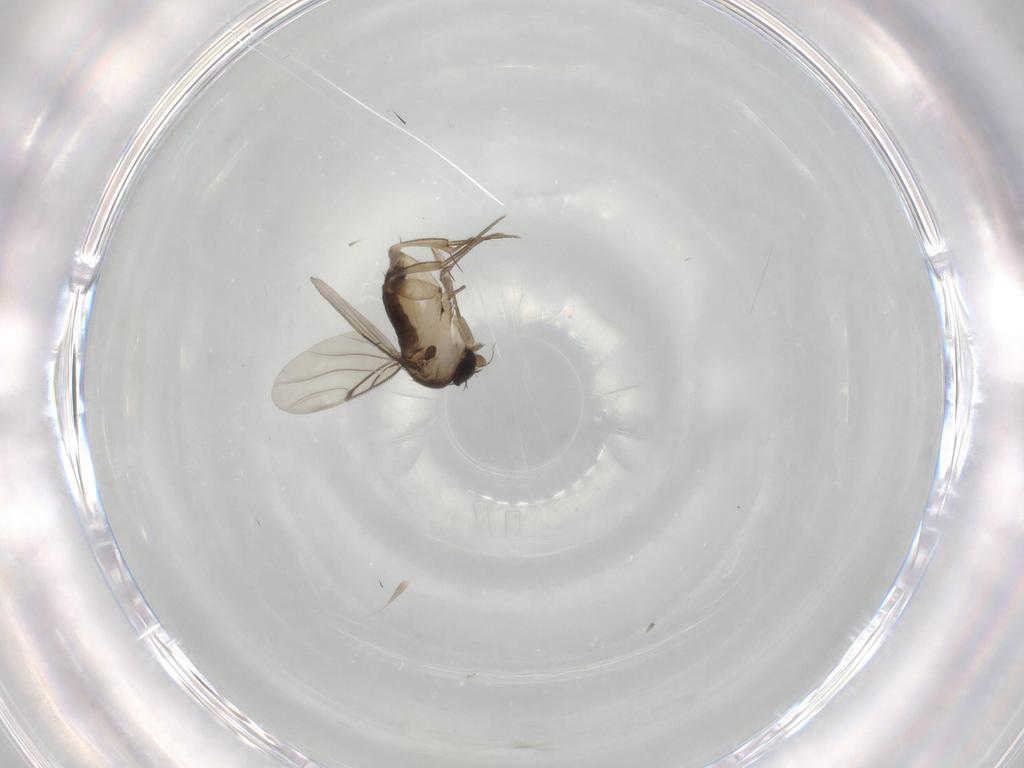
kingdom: Animalia
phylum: Arthropoda
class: Insecta
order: Diptera
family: Phoridae
